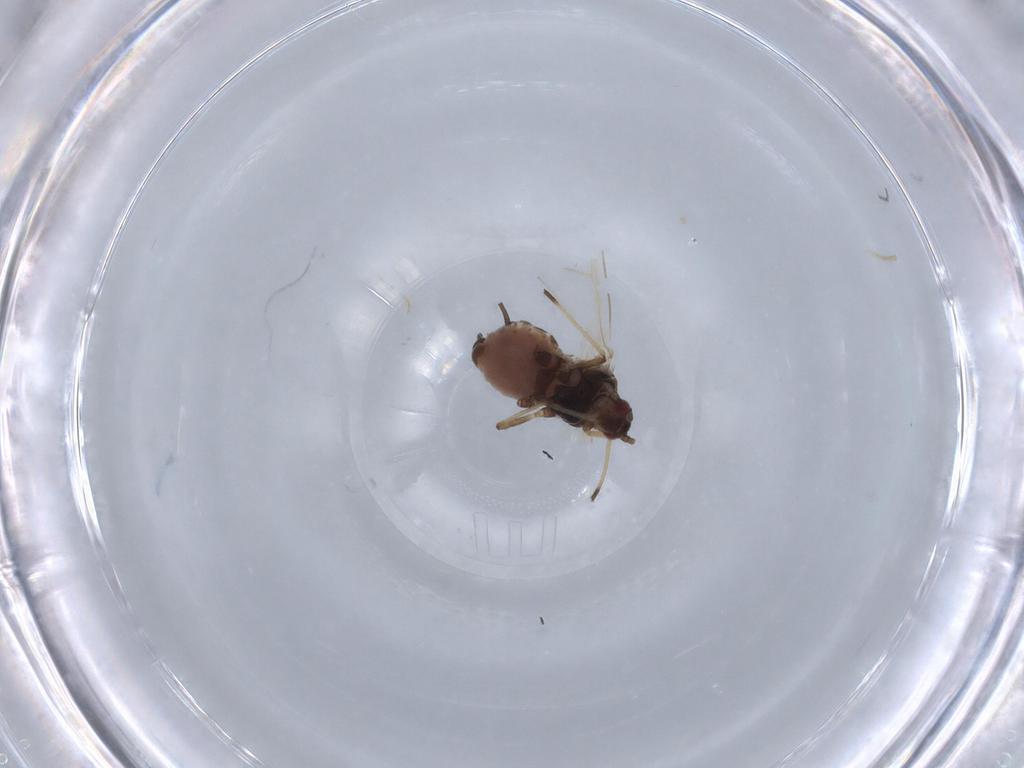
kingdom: Animalia
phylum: Arthropoda
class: Insecta
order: Hemiptera
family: Aphididae
